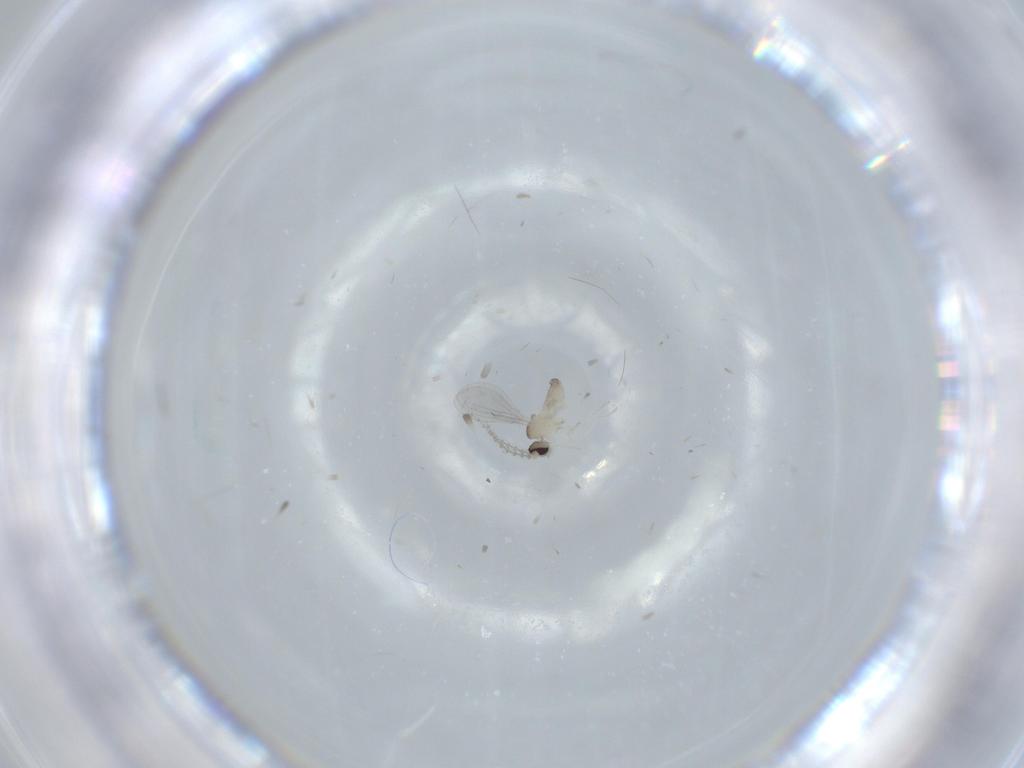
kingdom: Animalia
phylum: Arthropoda
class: Insecta
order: Diptera
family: Cecidomyiidae
